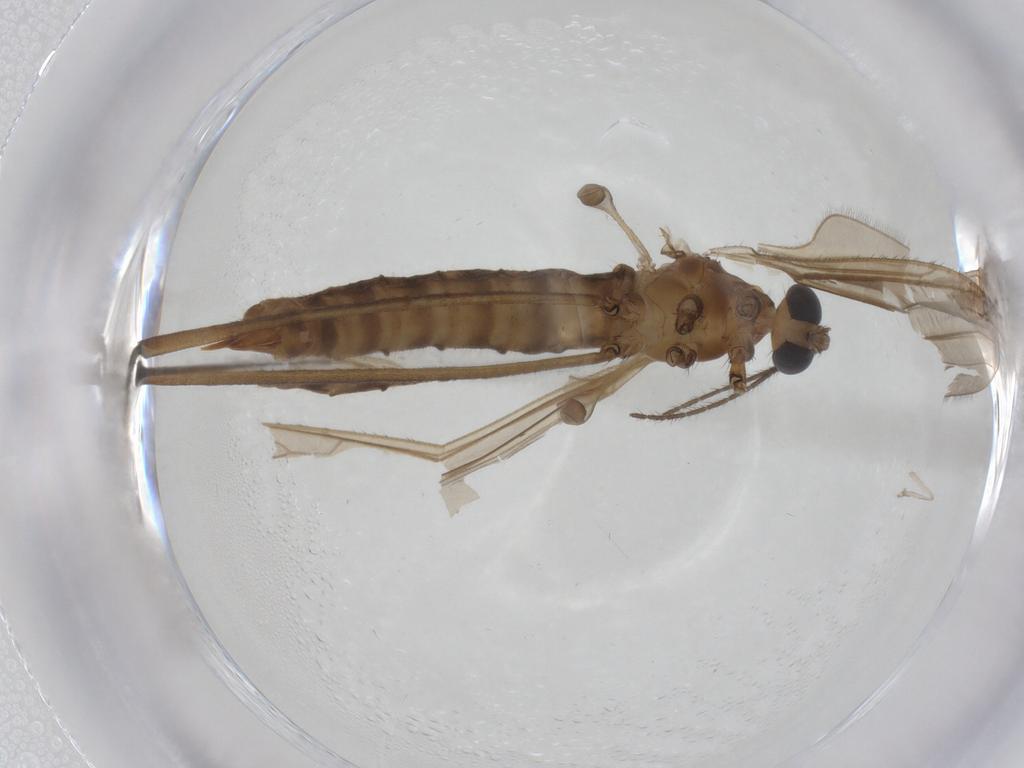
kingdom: Animalia
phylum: Arthropoda
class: Insecta
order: Diptera
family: Limoniidae
